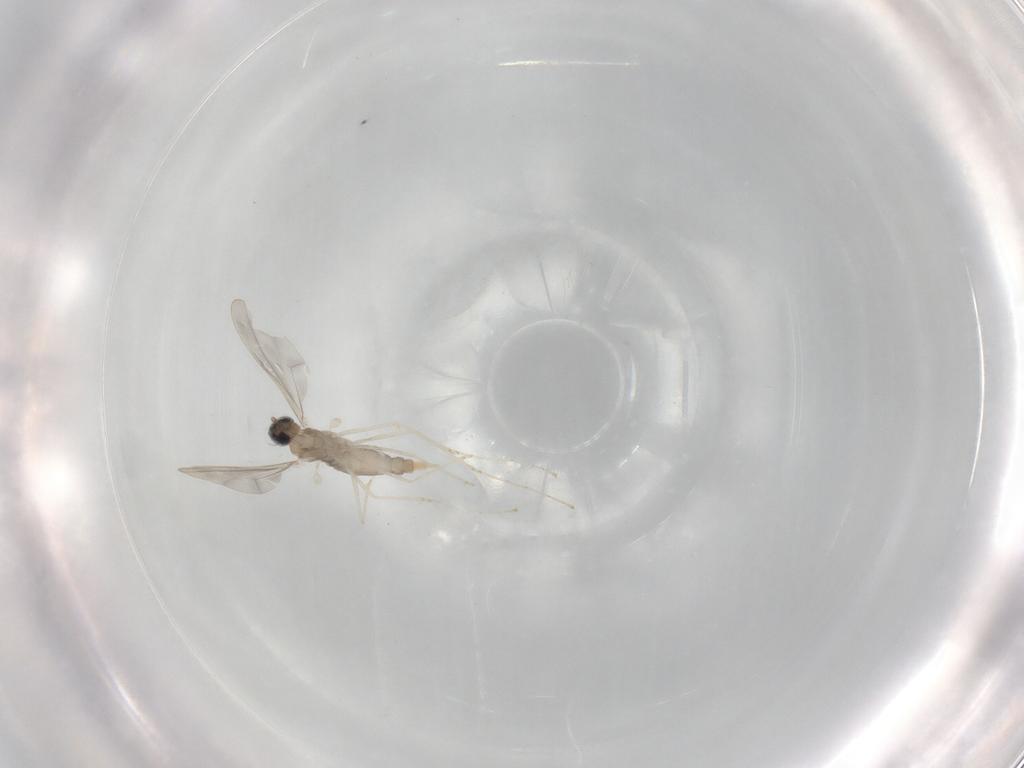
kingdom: Animalia
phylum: Arthropoda
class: Insecta
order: Diptera
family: Cecidomyiidae
